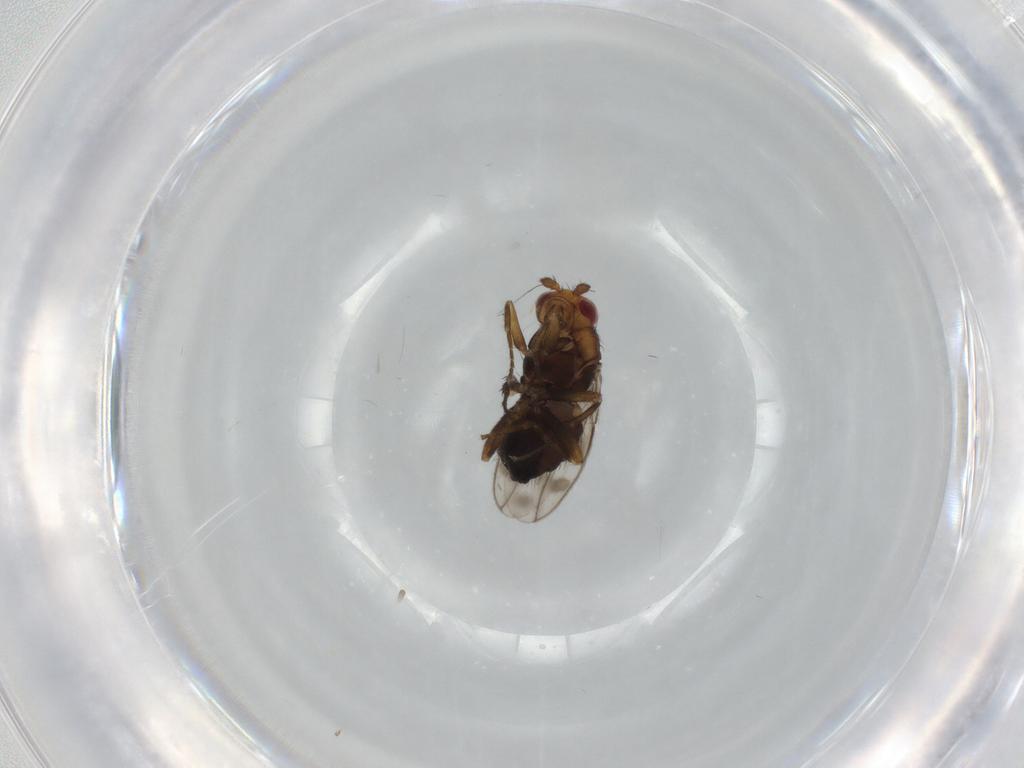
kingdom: Animalia
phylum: Arthropoda
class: Insecta
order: Diptera
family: Sphaeroceridae
